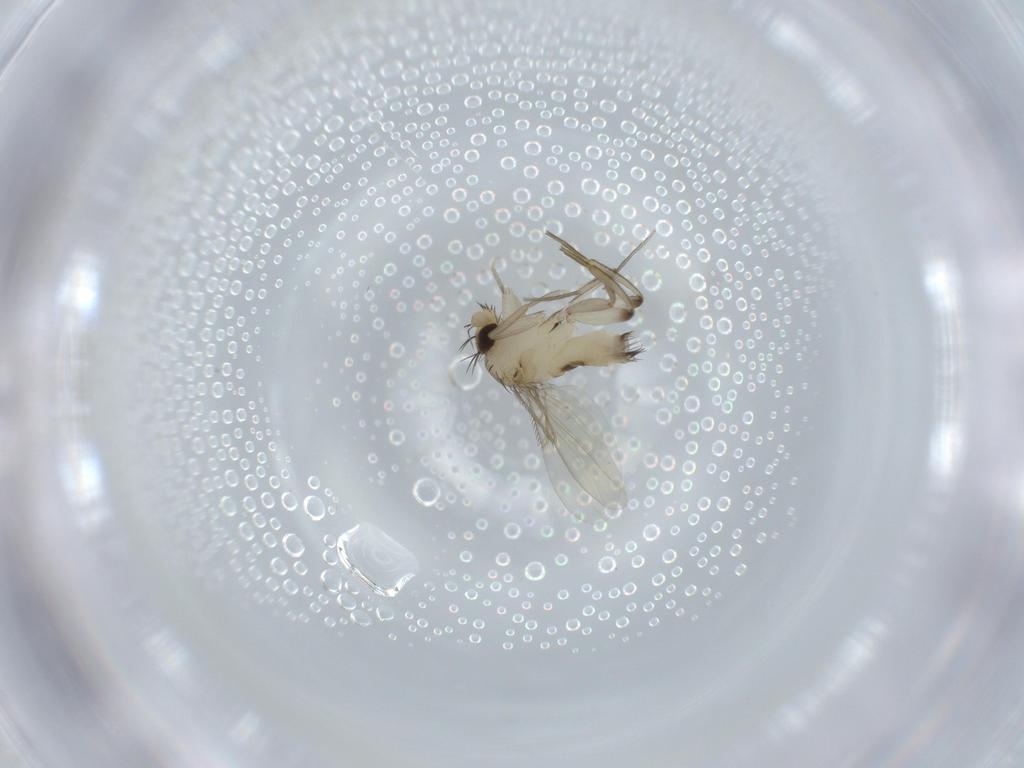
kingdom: Animalia
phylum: Arthropoda
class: Insecta
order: Diptera
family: Phoridae
